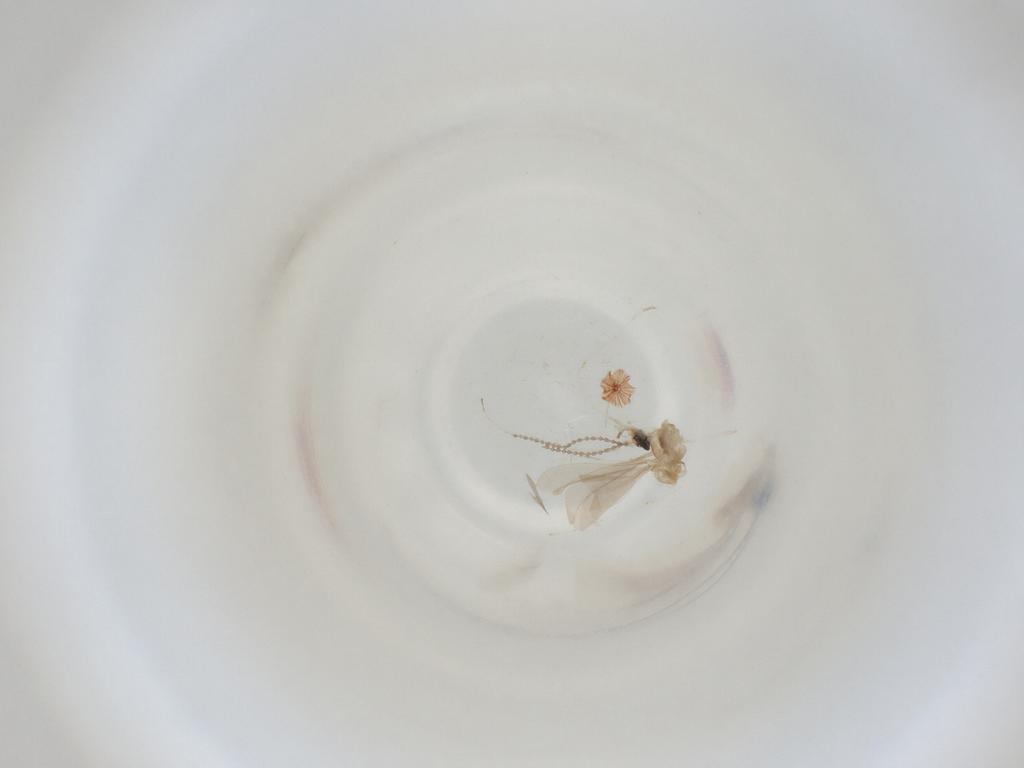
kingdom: Animalia
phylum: Arthropoda
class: Insecta
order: Diptera
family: Cecidomyiidae
